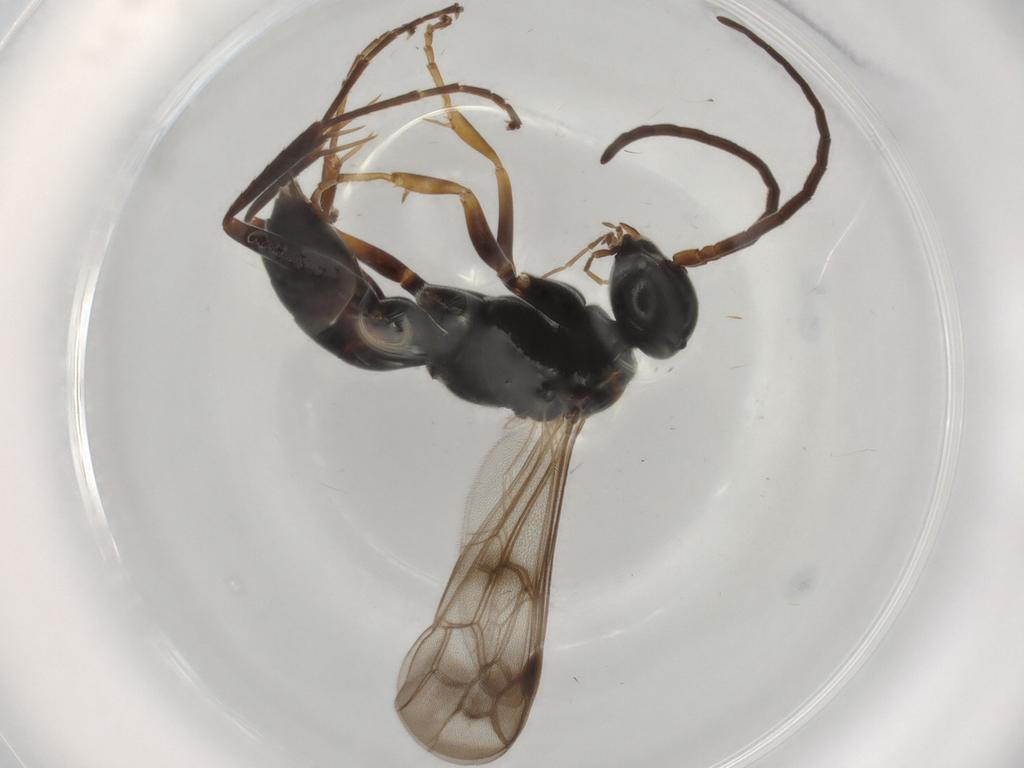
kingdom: Animalia
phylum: Arthropoda
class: Insecta
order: Hymenoptera
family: Pompilidae
